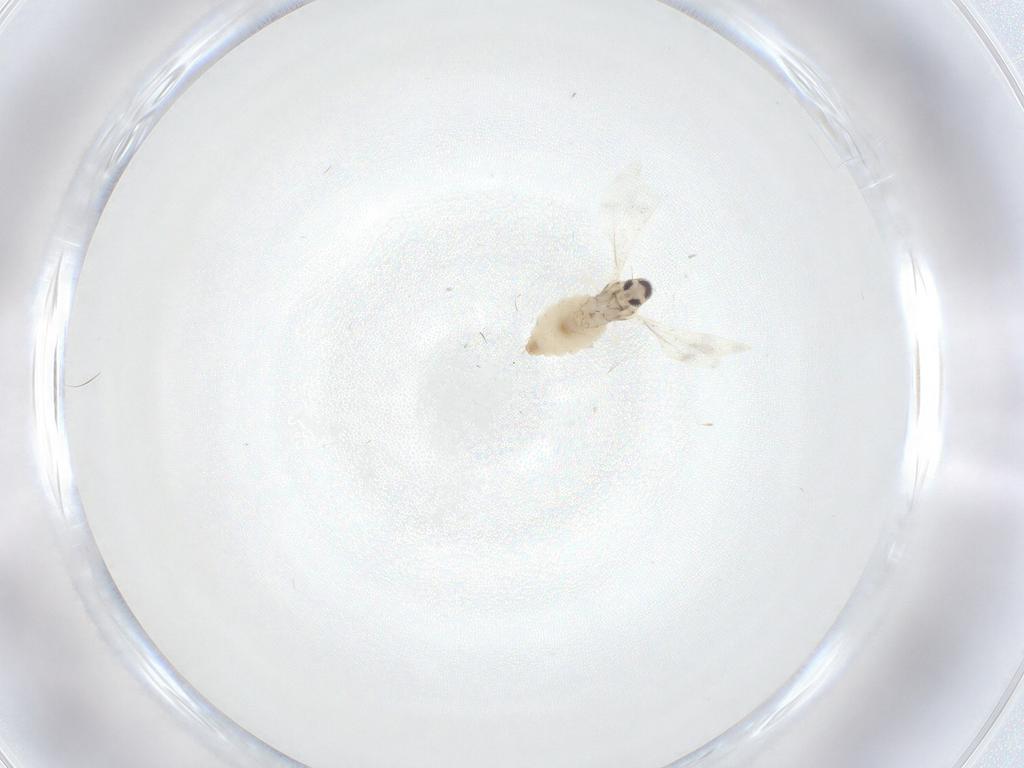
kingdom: Animalia
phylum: Arthropoda
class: Insecta
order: Diptera
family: Cecidomyiidae
